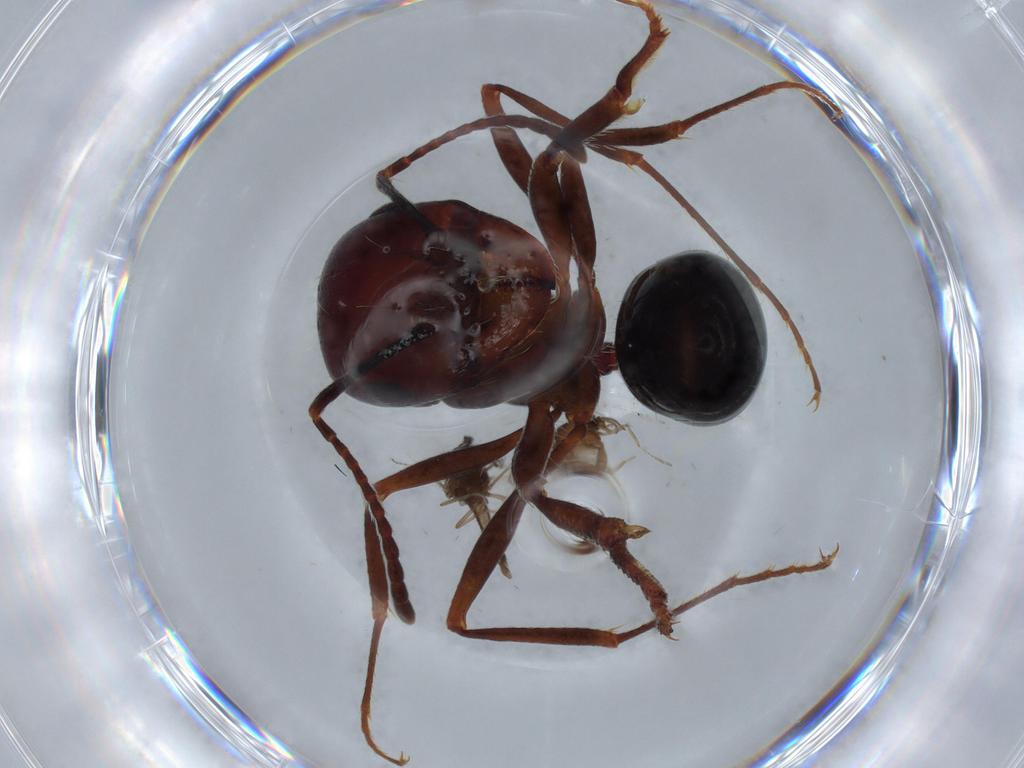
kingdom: Animalia
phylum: Arthropoda
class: Insecta
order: Hymenoptera
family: Formicidae
